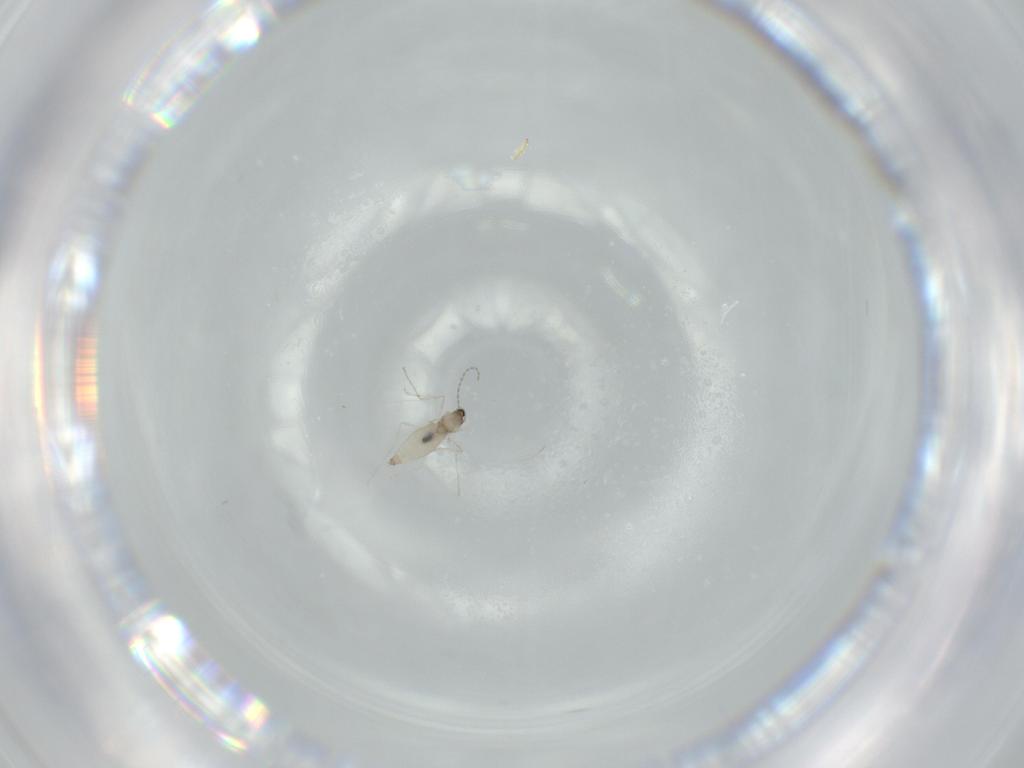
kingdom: Animalia
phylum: Arthropoda
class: Insecta
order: Diptera
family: Cecidomyiidae
